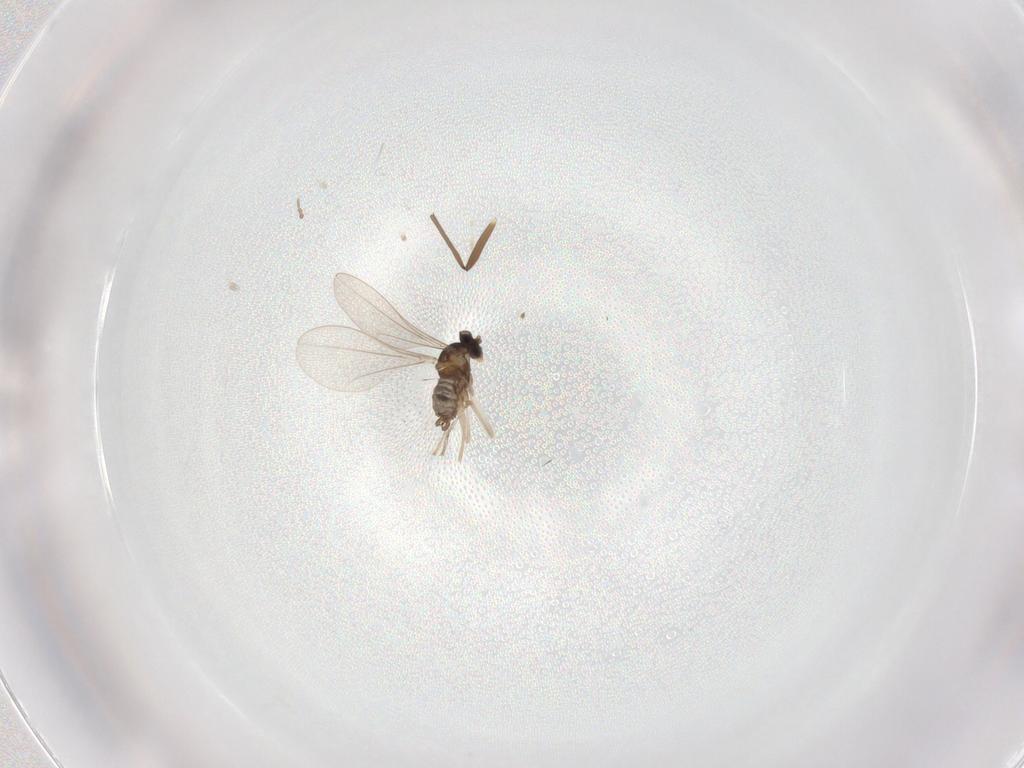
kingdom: Animalia
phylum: Arthropoda
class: Insecta
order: Diptera
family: Cecidomyiidae
